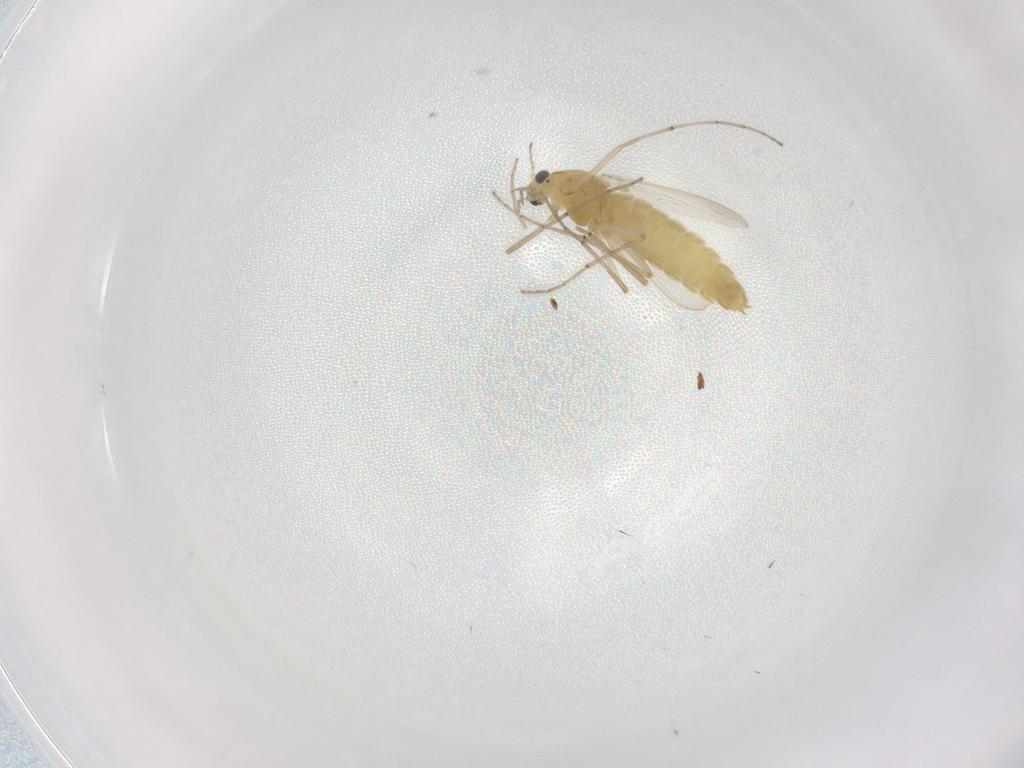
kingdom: Animalia
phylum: Arthropoda
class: Insecta
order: Diptera
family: Chironomidae
